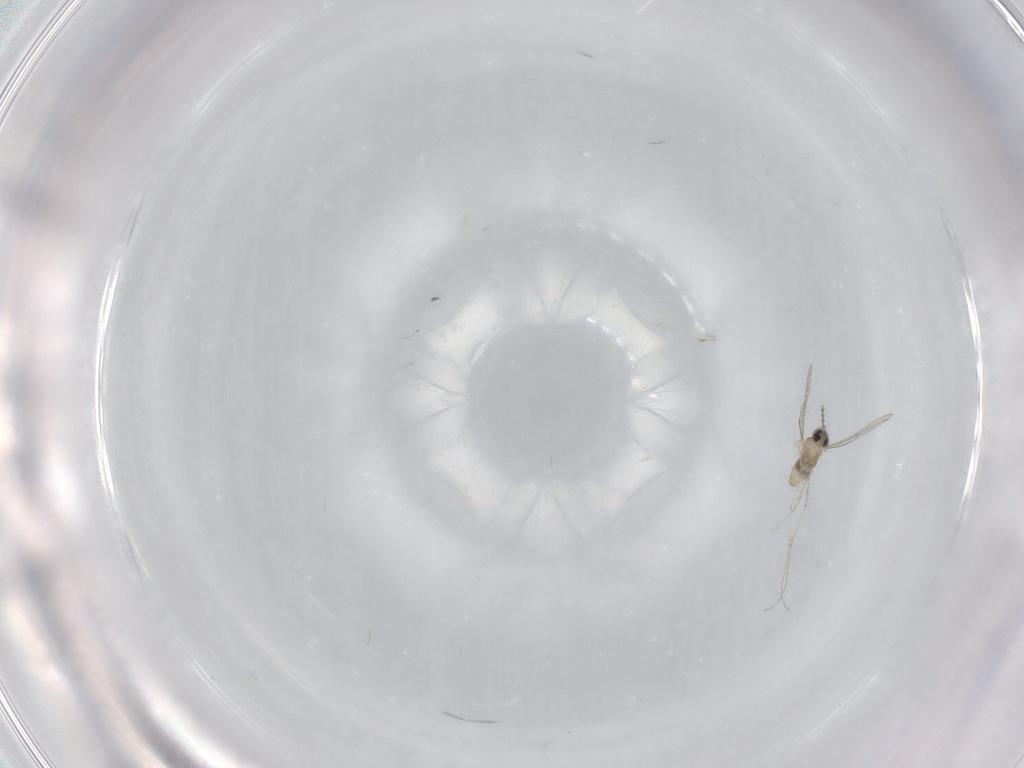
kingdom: Animalia
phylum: Arthropoda
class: Insecta
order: Diptera
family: Cecidomyiidae
